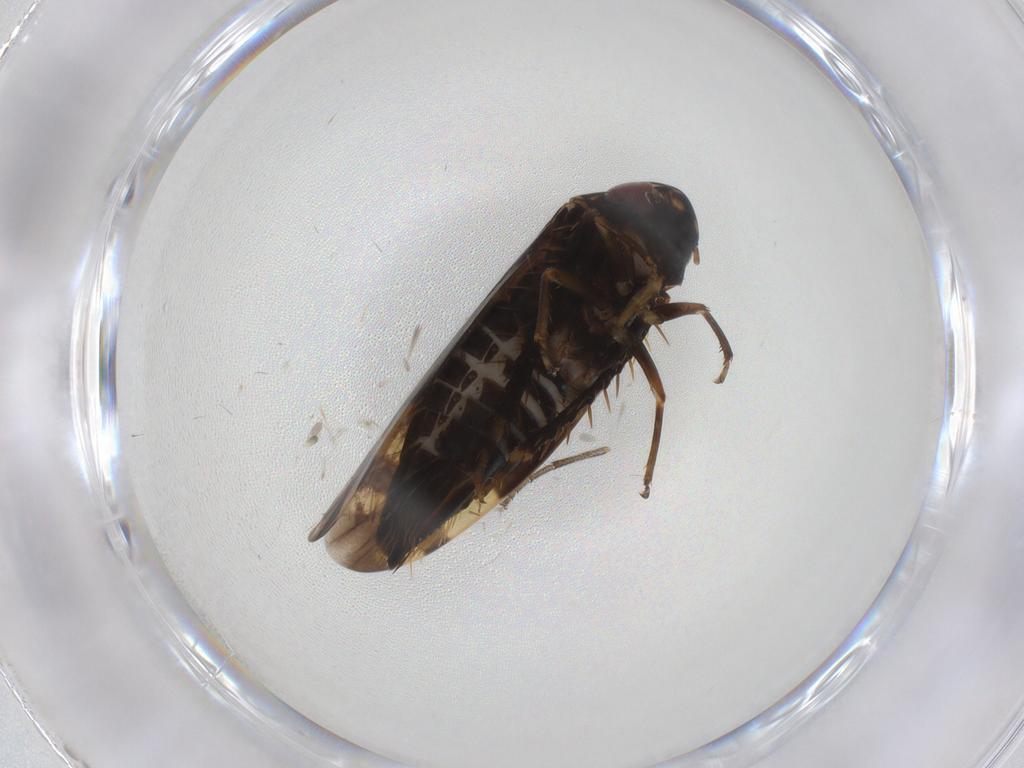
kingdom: Animalia
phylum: Arthropoda
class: Insecta
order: Hemiptera
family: Cicadellidae
